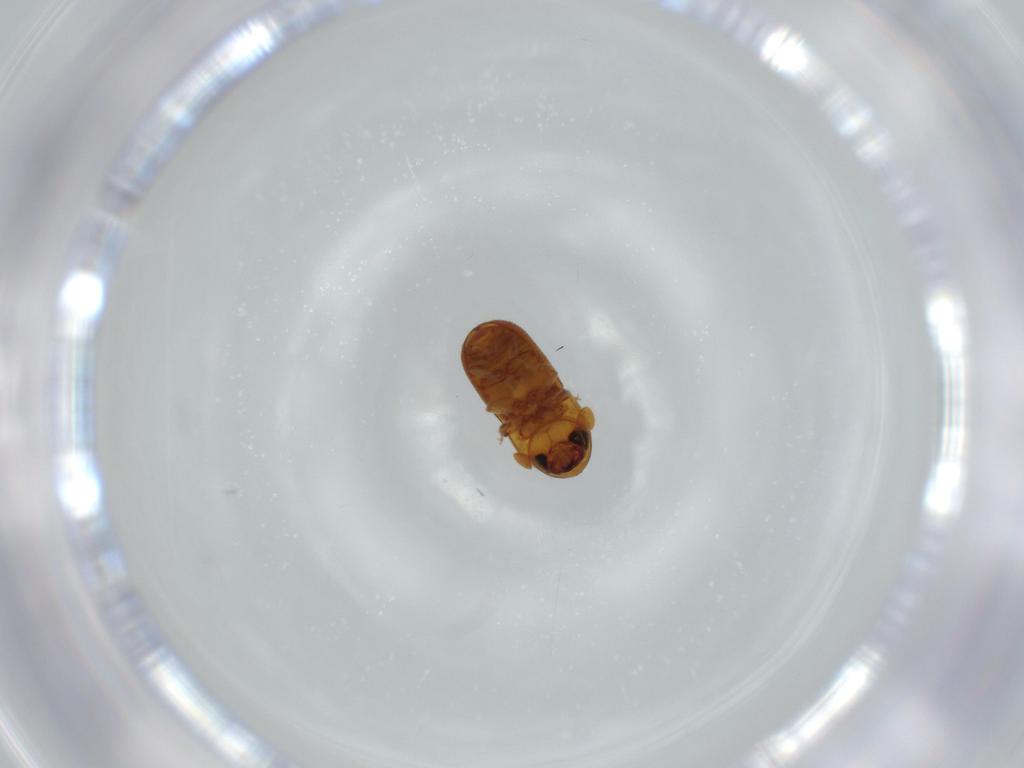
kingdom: Animalia
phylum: Arthropoda
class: Insecta
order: Coleoptera
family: Curculionidae
